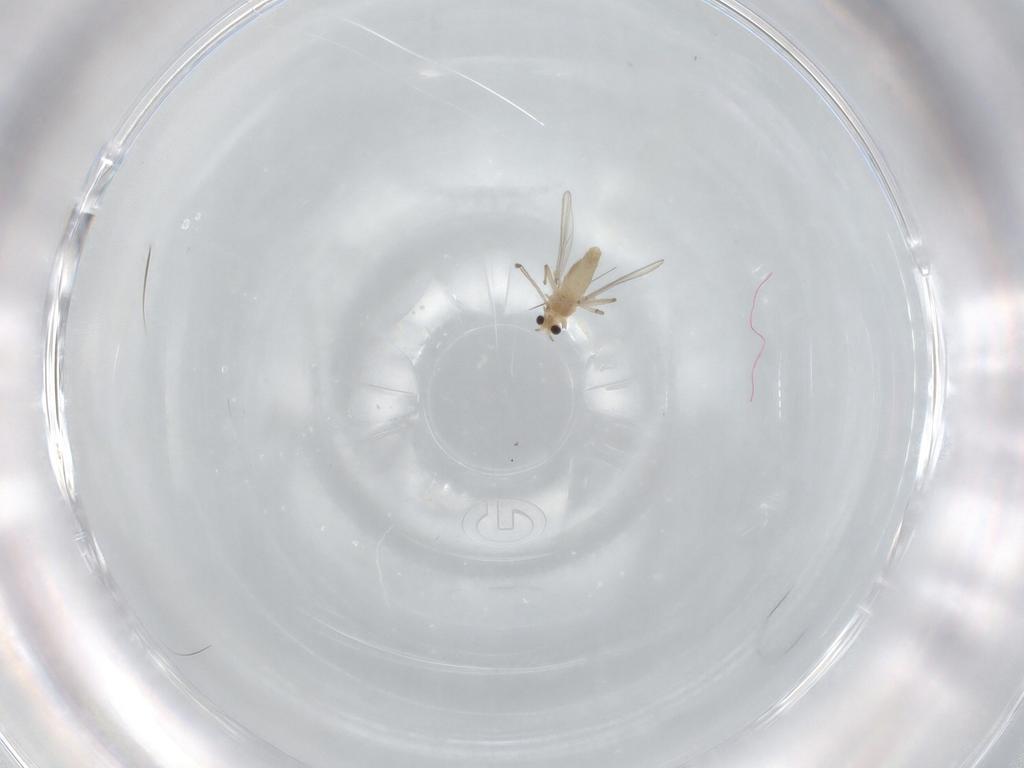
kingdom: Animalia
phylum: Arthropoda
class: Insecta
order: Diptera
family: Chironomidae
